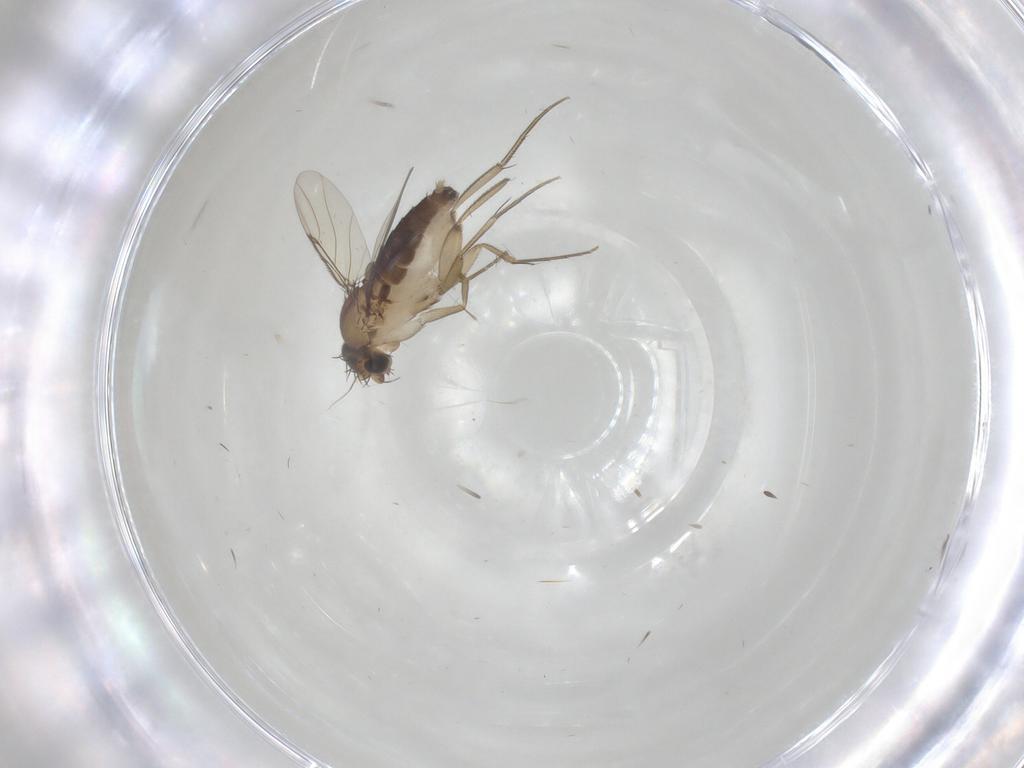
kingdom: Animalia
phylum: Arthropoda
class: Insecta
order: Diptera
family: Phoridae
